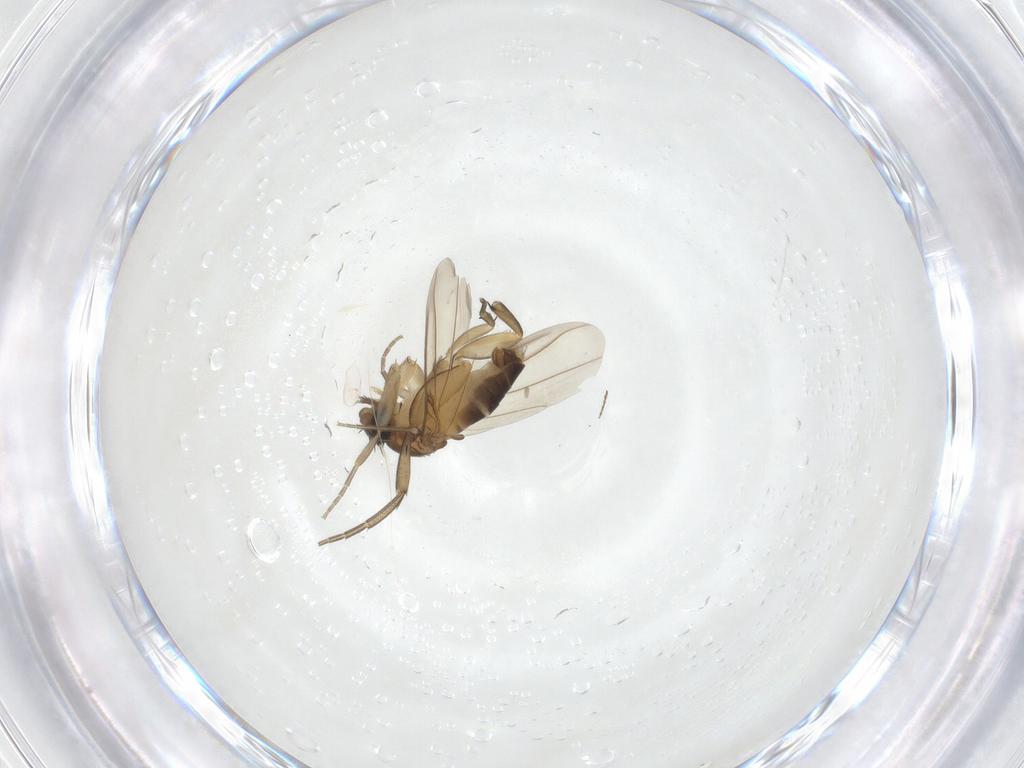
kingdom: Animalia
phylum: Arthropoda
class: Insecta
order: Diptera
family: Phoridae
